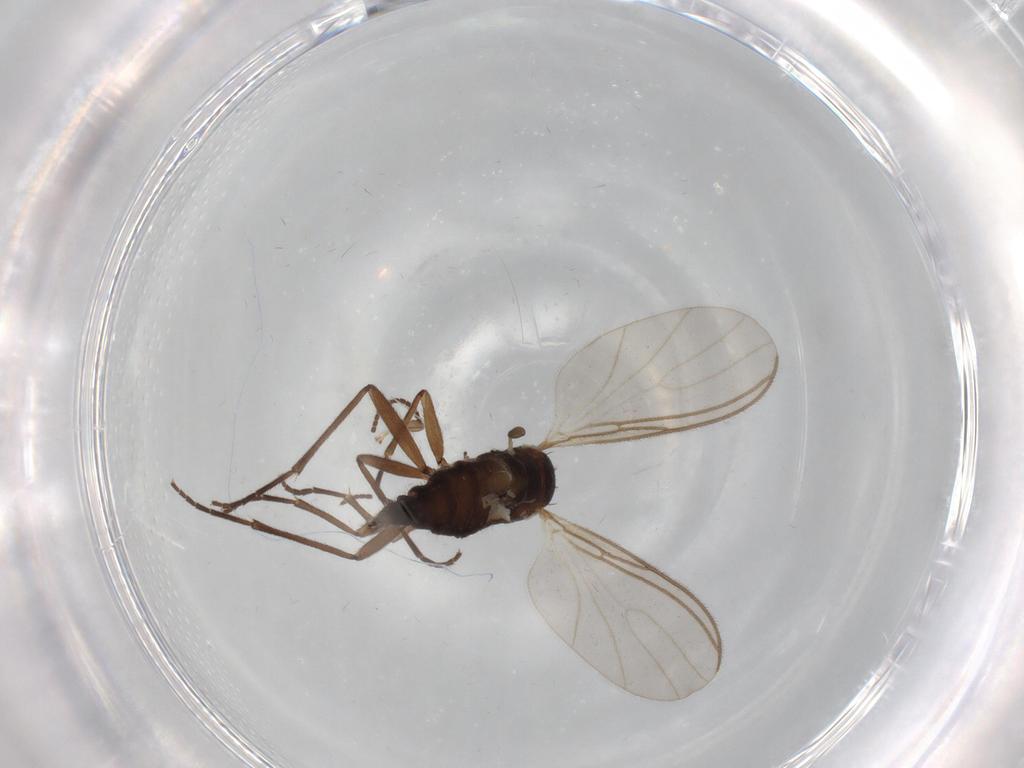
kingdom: Animalia
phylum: Arthropoda
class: Insecta
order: Diptera
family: Sciaridae
